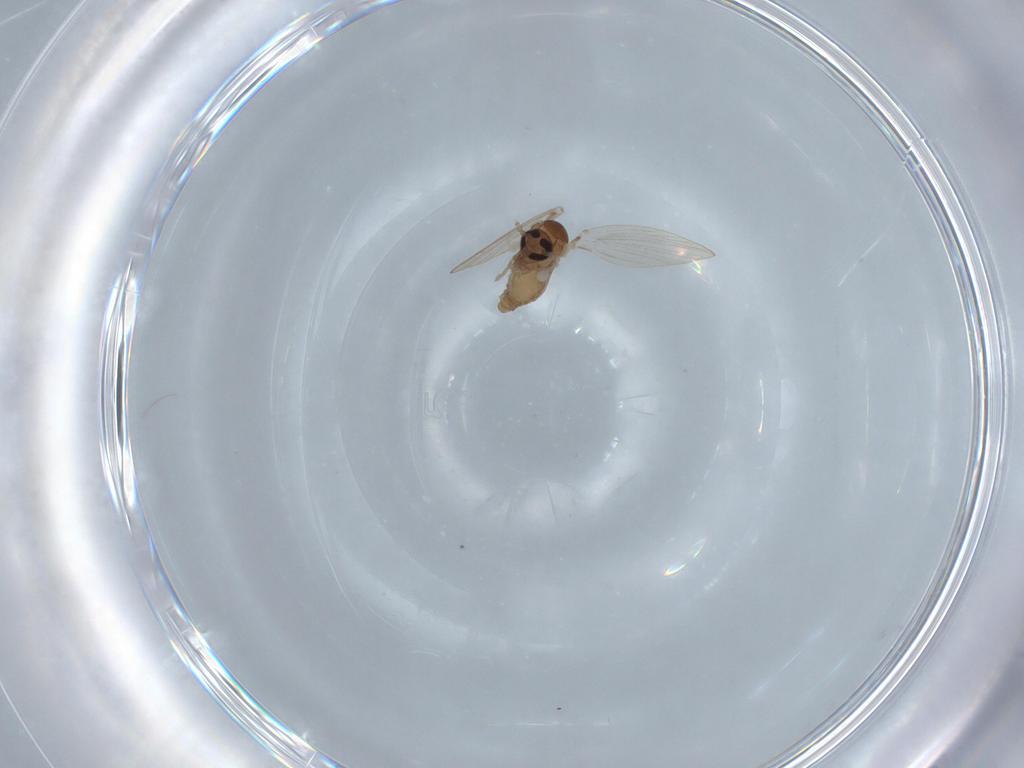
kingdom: Animalia
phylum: Arthropoda
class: Insecta
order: Diptera
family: Psychodidae
